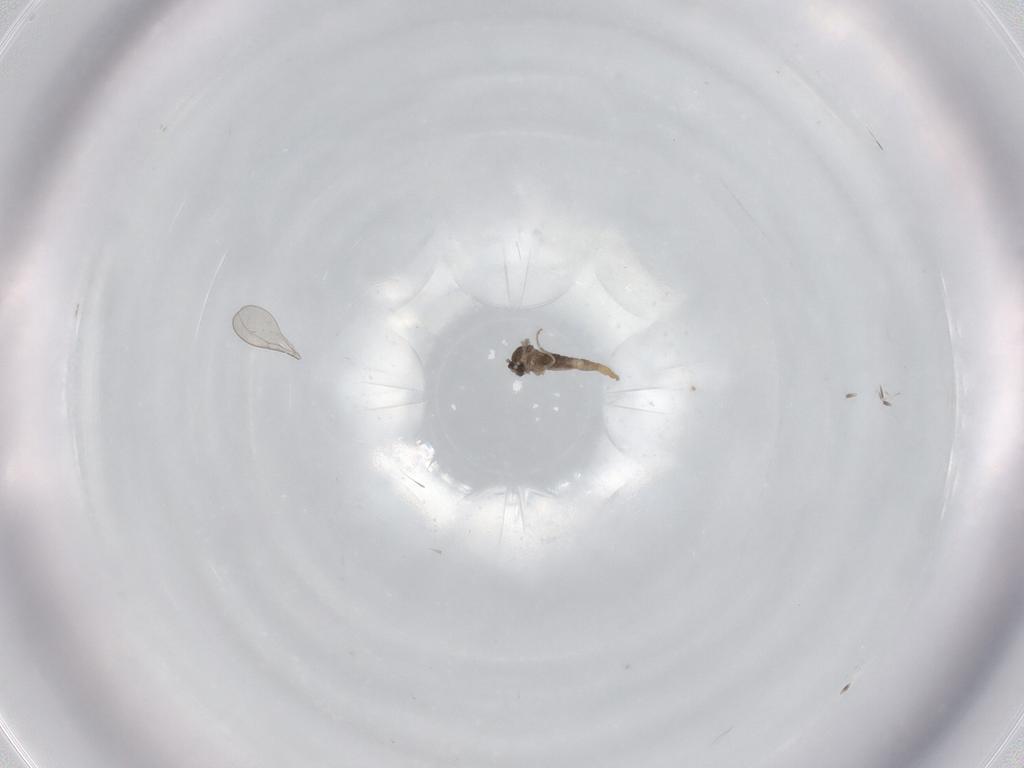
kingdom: Animalia
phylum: Arthropoda
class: Insecta
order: Diptera
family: Cecidomyiidae
